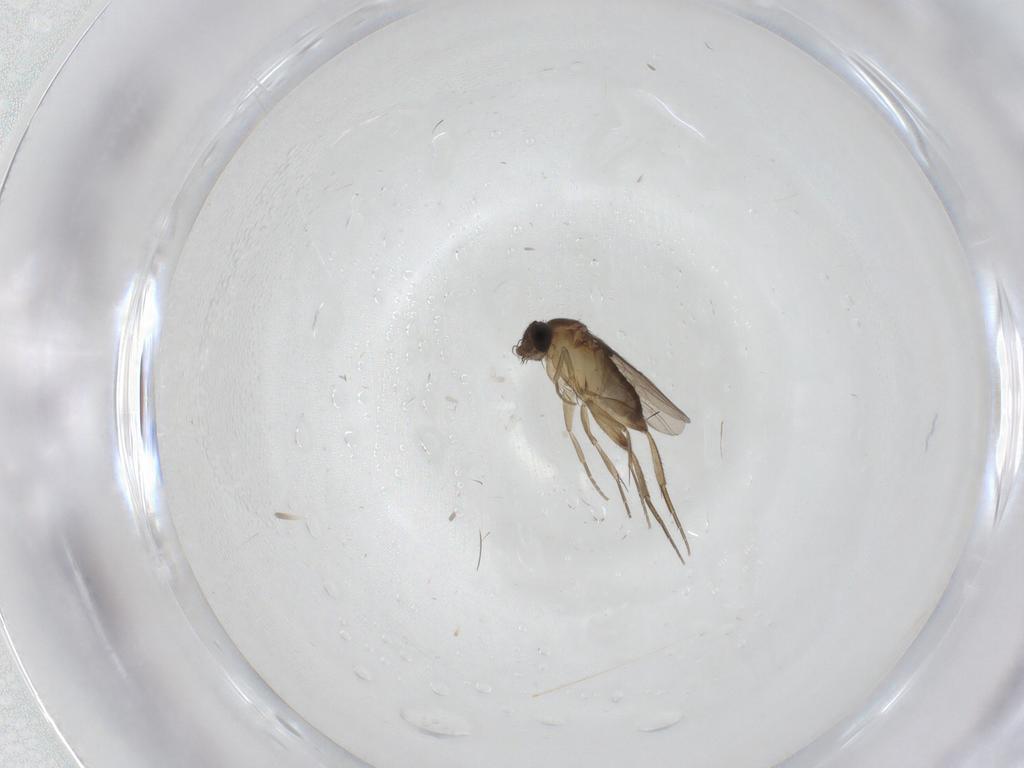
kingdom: Animalia
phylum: Arthropoda
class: Insecta
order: Diptera
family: Phoridae
